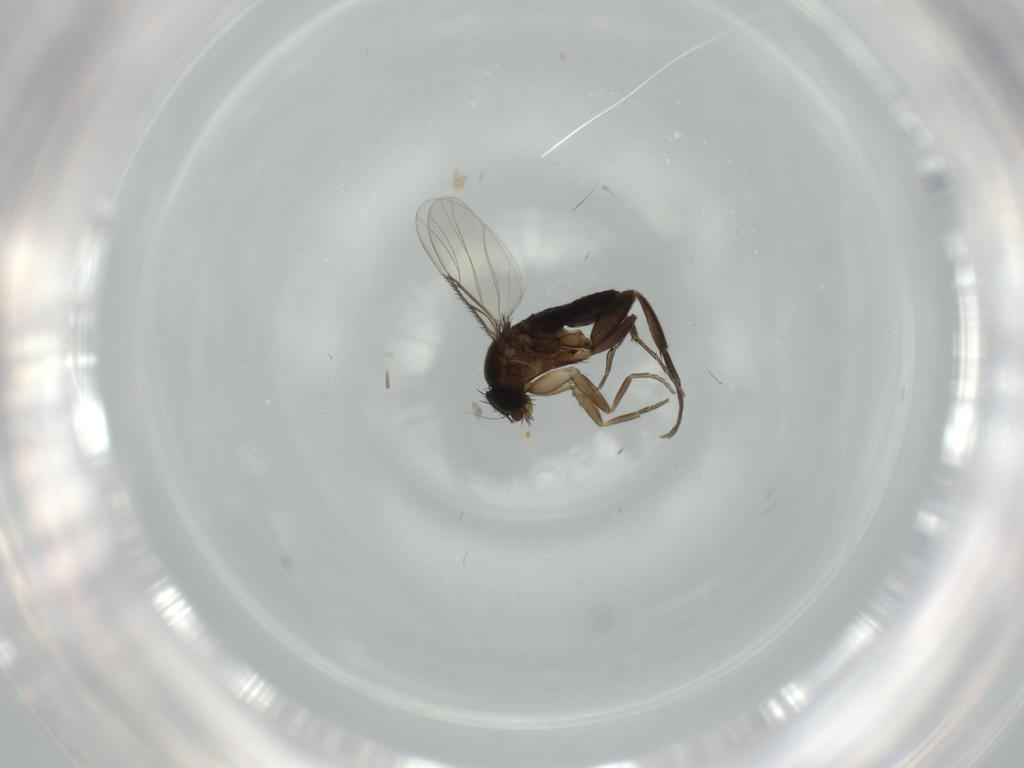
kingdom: Animalia
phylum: Arthropoda
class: Insecta
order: Diptera
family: Phoridae
